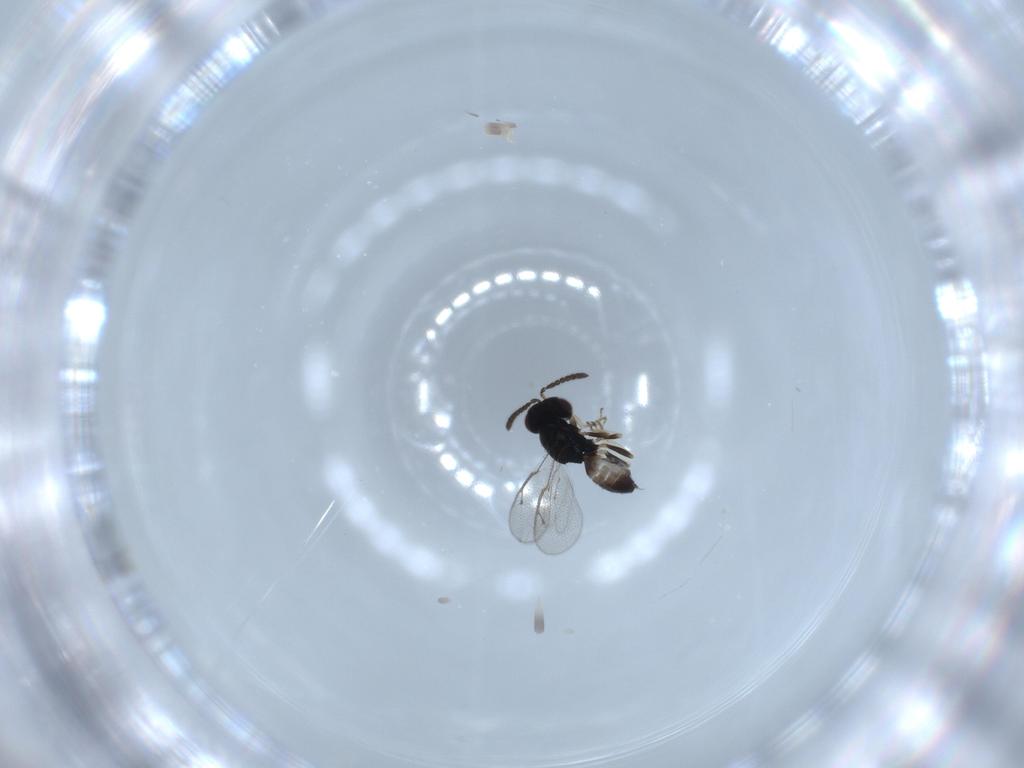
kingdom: Animalia
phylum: Arthropoda
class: Insecta
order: Hymenoptera
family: Pteromalidae
